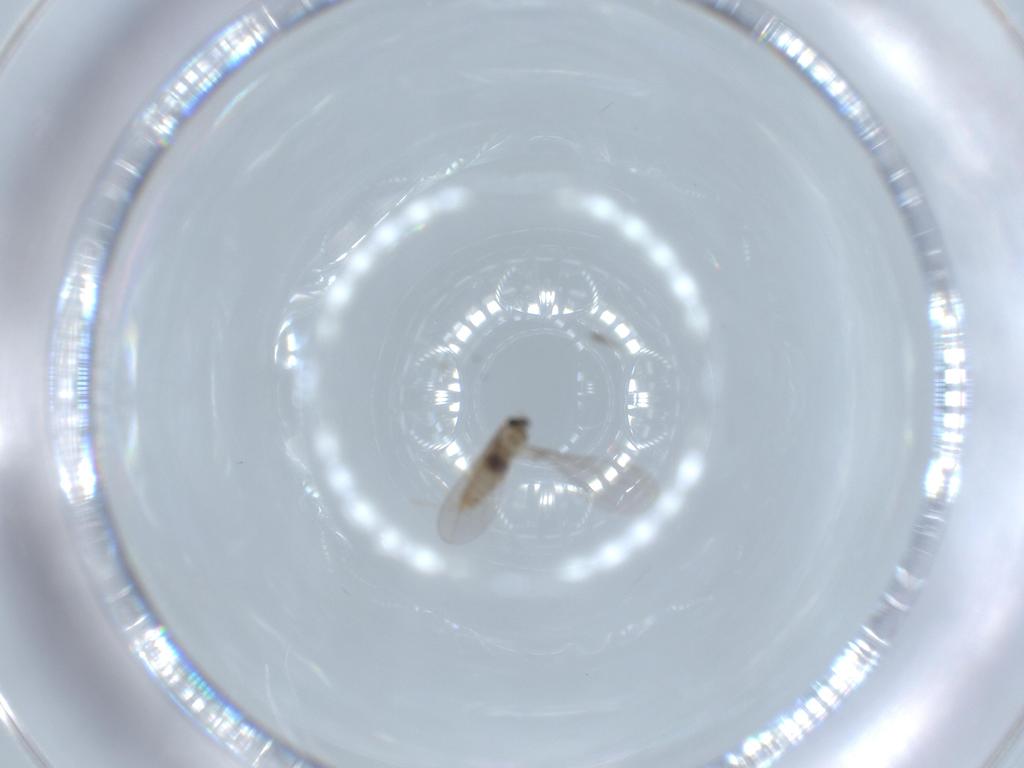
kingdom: Animalia
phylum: Arthropoda
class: Insecta
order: Diptera
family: Cecidomyiidae
